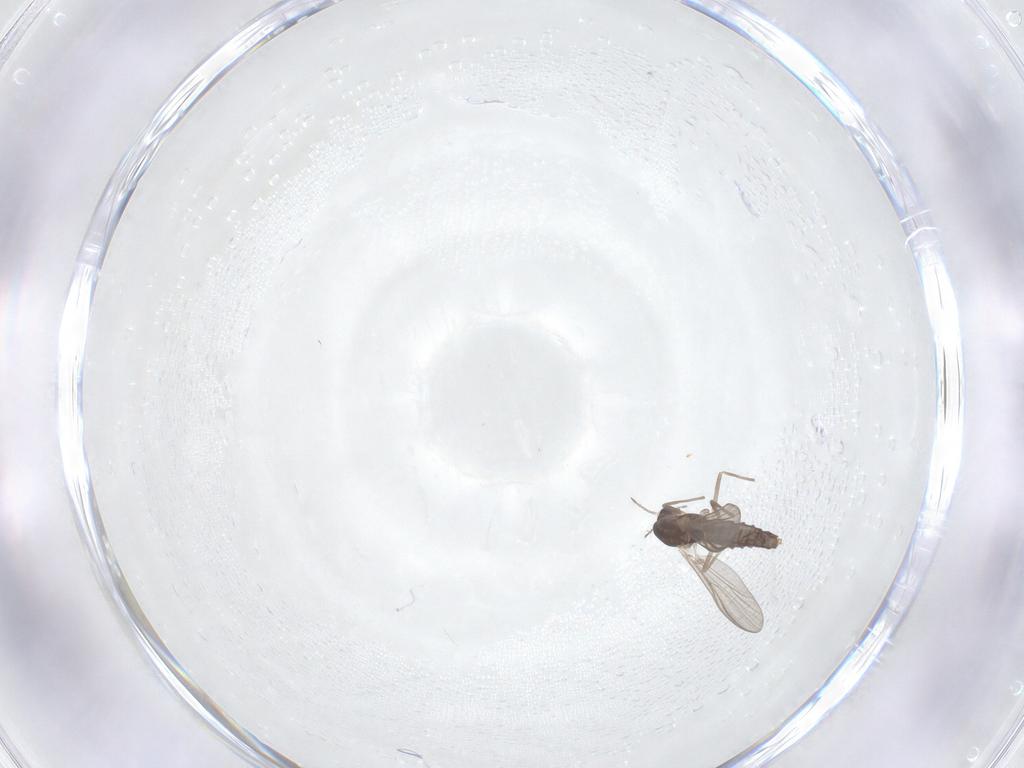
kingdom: Animalia
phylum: Arthropoda
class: Insecta
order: Diptera
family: Chironomidae
